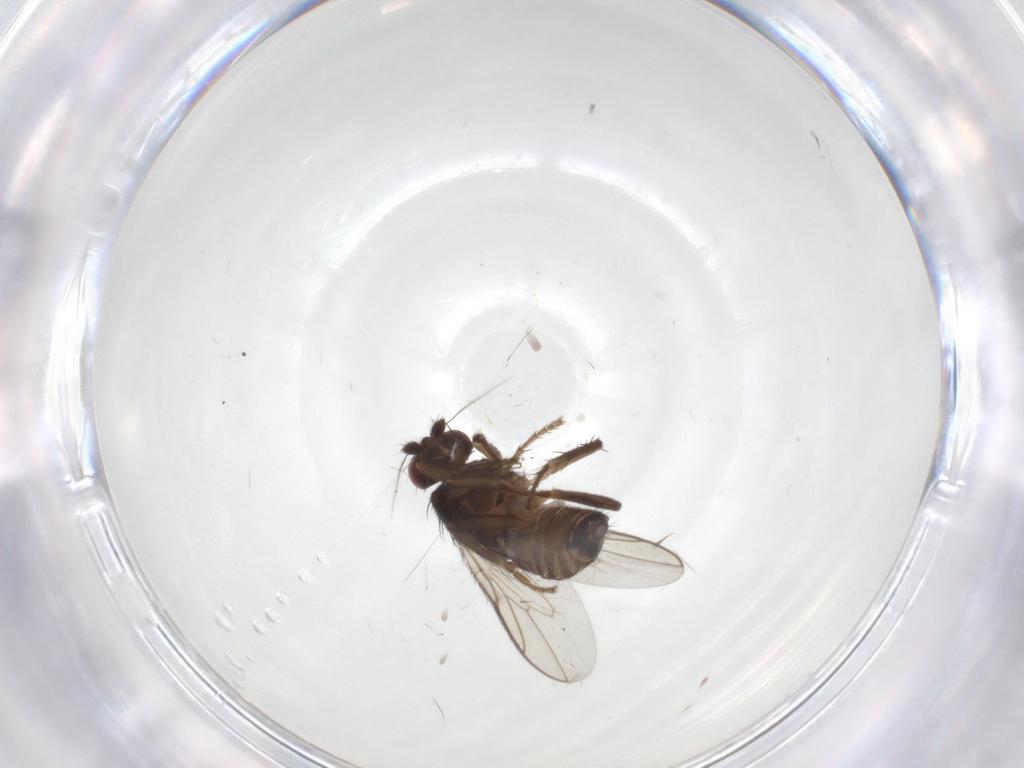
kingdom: Animalia
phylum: Arthropoda
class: Insecta
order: Diptera
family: Sphaeroceridae
